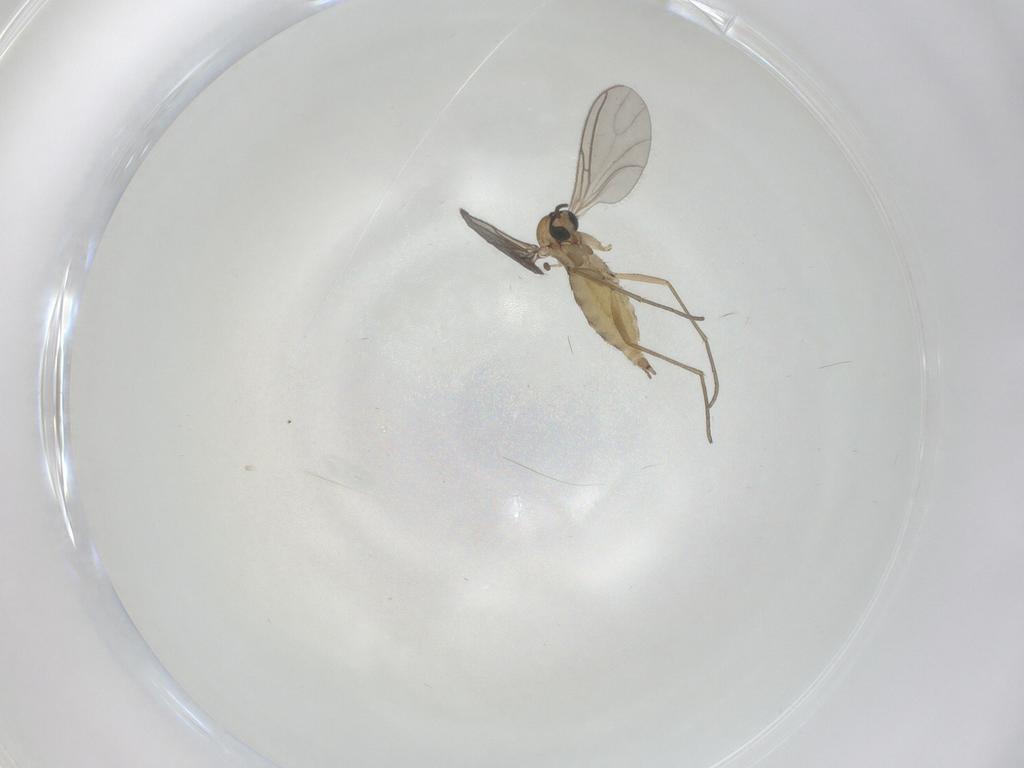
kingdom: Animalia
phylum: Arthropoda
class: Insecta
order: Diptera
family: Sciaridae
